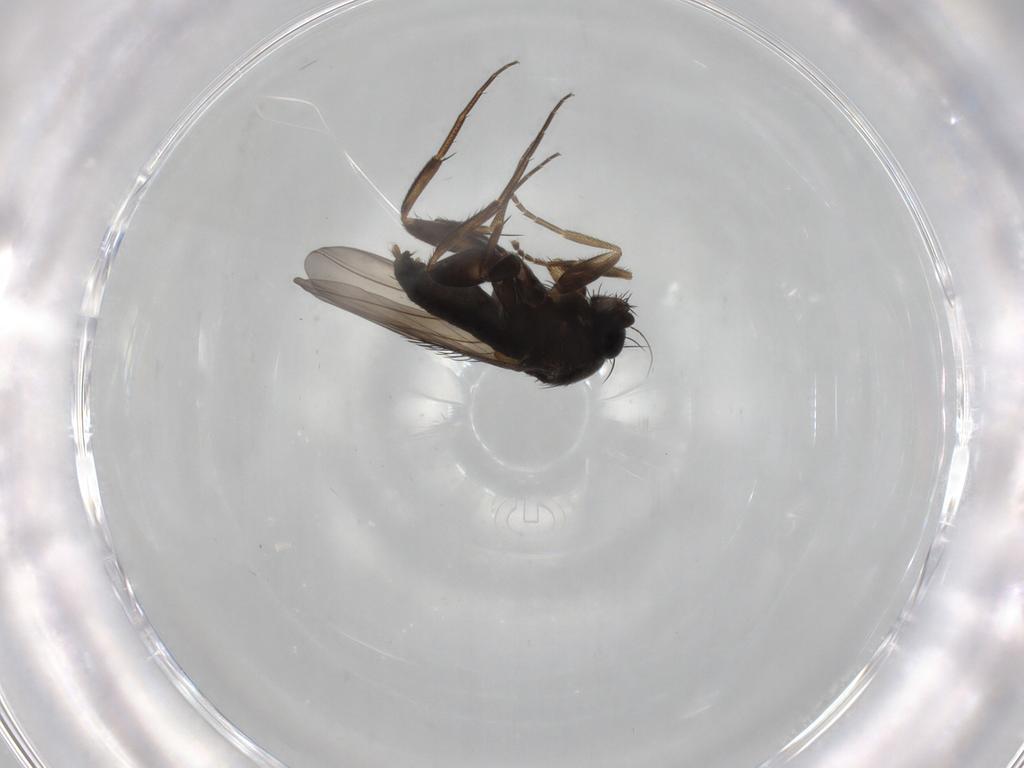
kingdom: Animalia
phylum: Arthropoda
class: Insecta
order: Diptera
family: Phoridae
